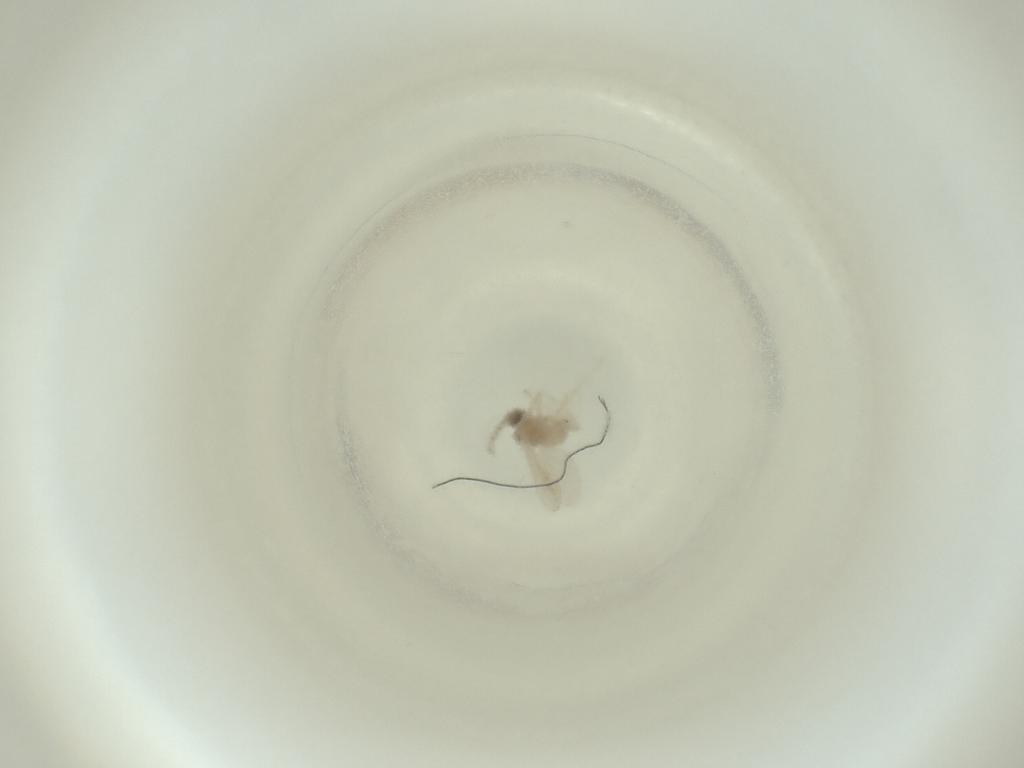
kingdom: Animalia
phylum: Arthropoda
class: Insecta
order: Diptera
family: Cecidomyiidae
